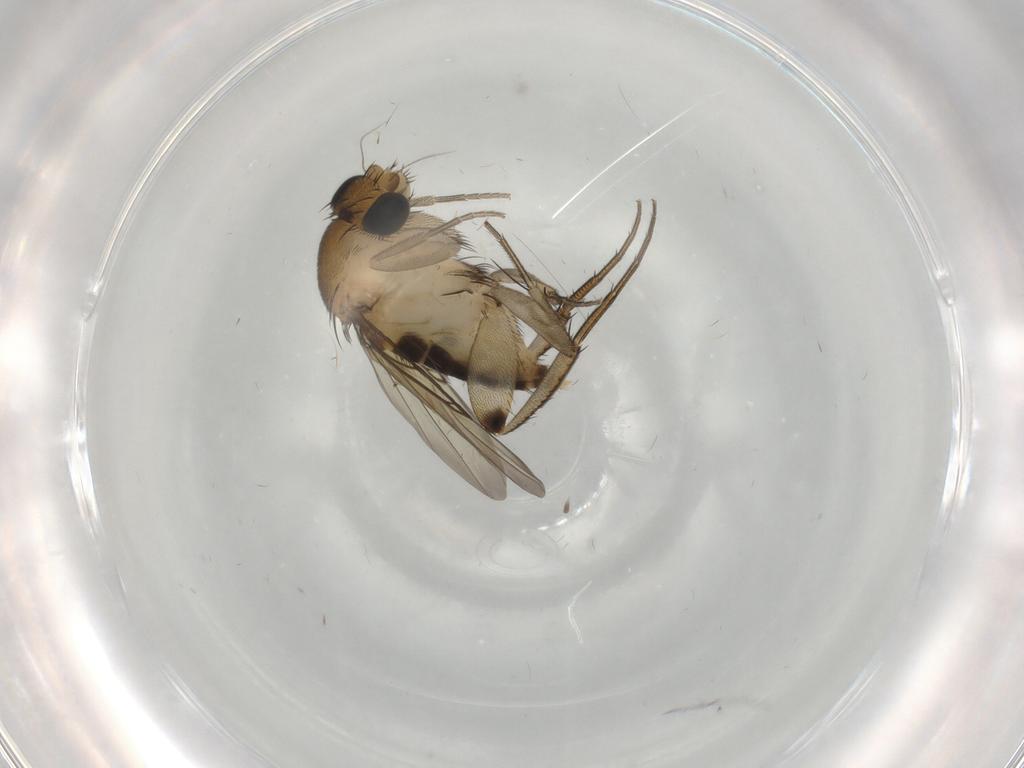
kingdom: Animalia
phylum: Arthropoda
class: Insecta
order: Diptera
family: Phoridae
